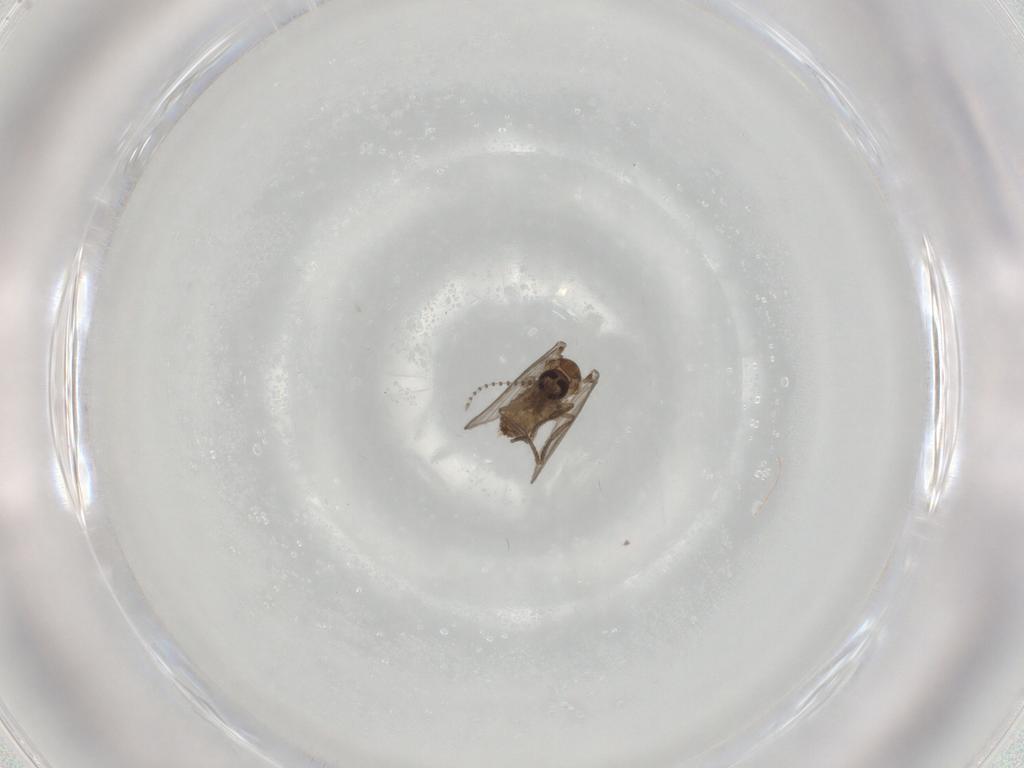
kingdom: Animalia
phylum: Arthropoda
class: Insecta
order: Diptera
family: Psychodidae
